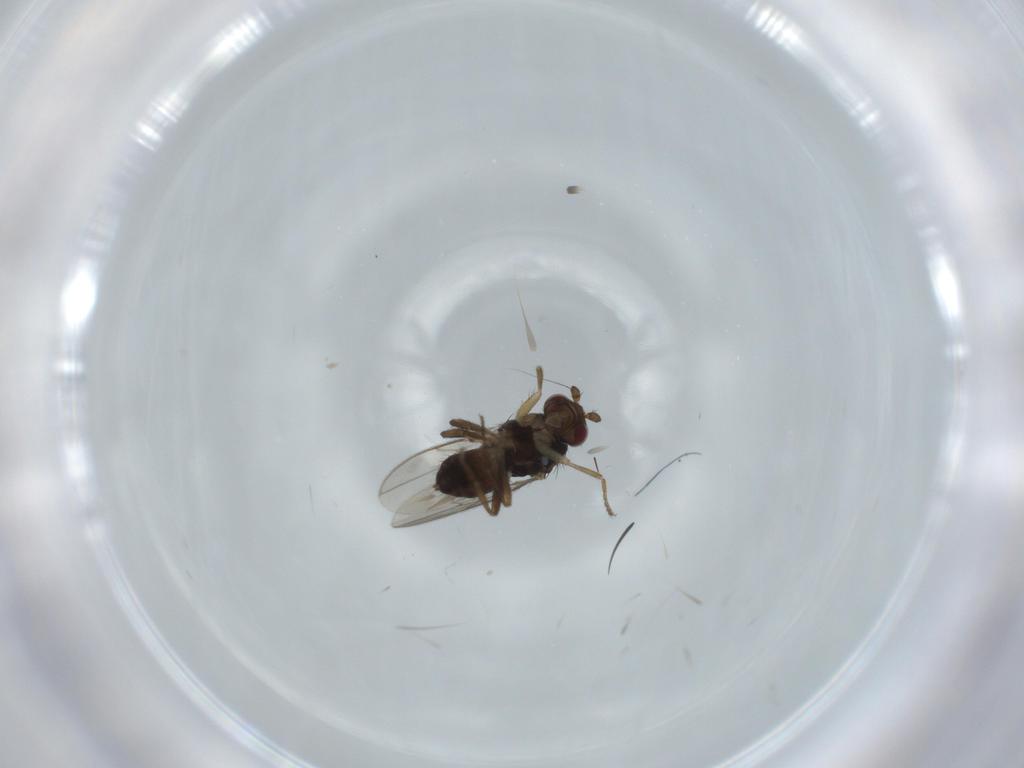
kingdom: Animalia
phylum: Arthropoda
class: Insecta
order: Diptera
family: Sphaeroceridae
